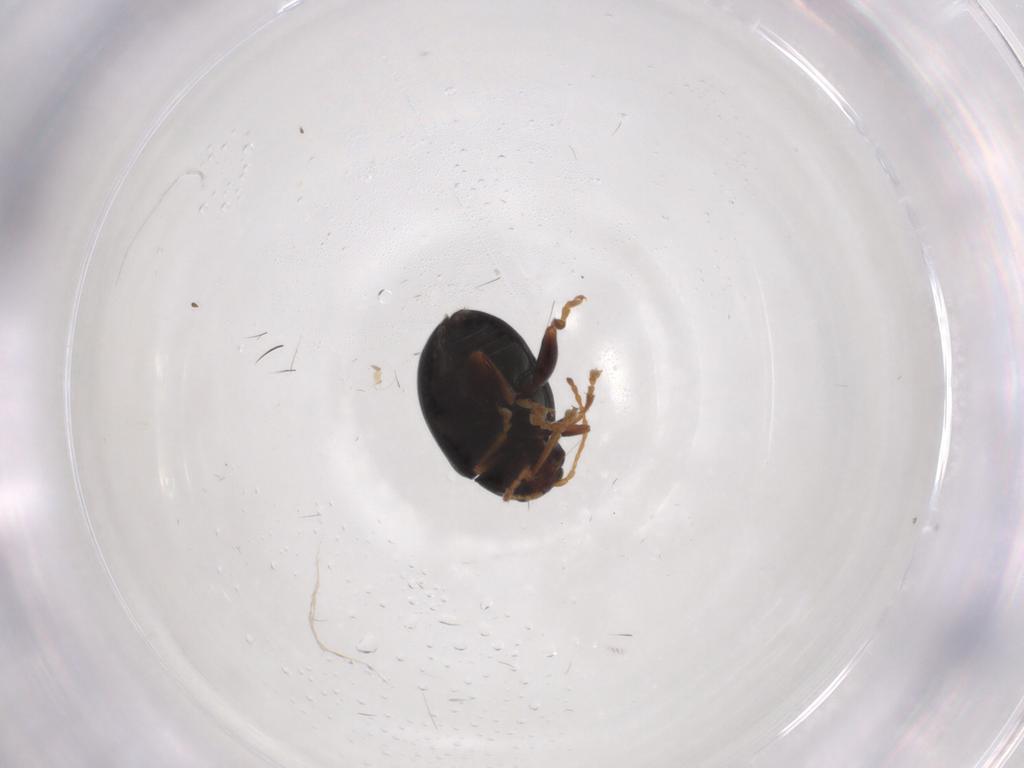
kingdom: Animalia
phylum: Arthropoda
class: Insecta
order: Coleoptera
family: Chrysomelidae
